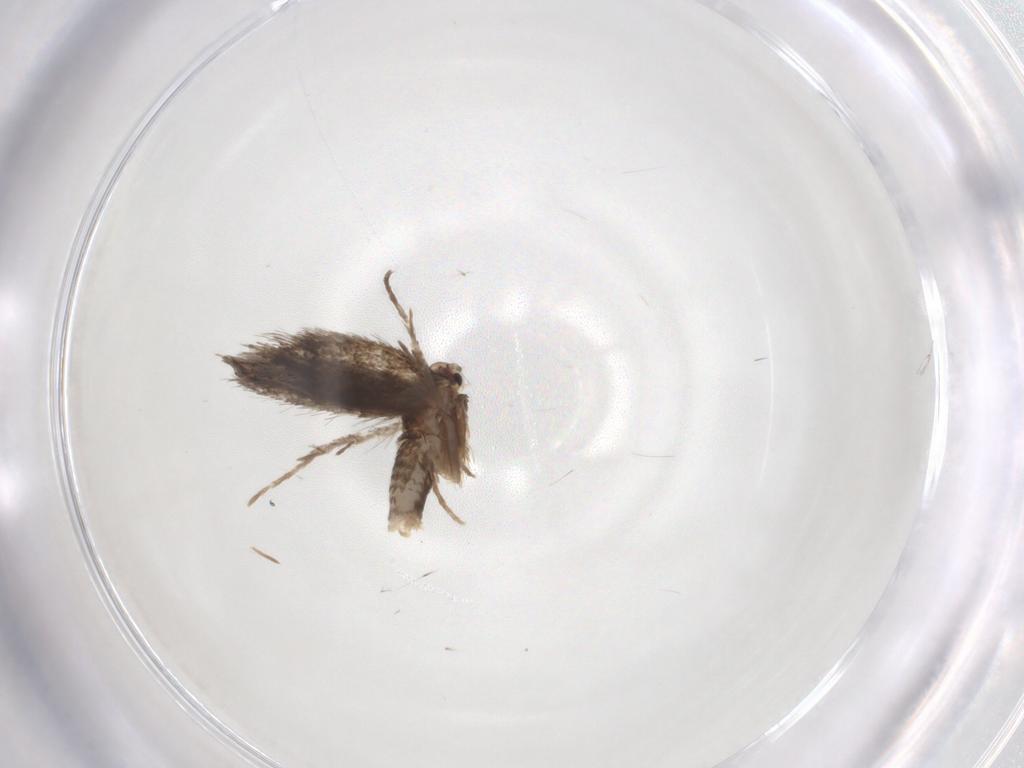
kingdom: Animalia
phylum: Arthropoda
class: Insecta
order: Lepidoptera
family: Psychidae
